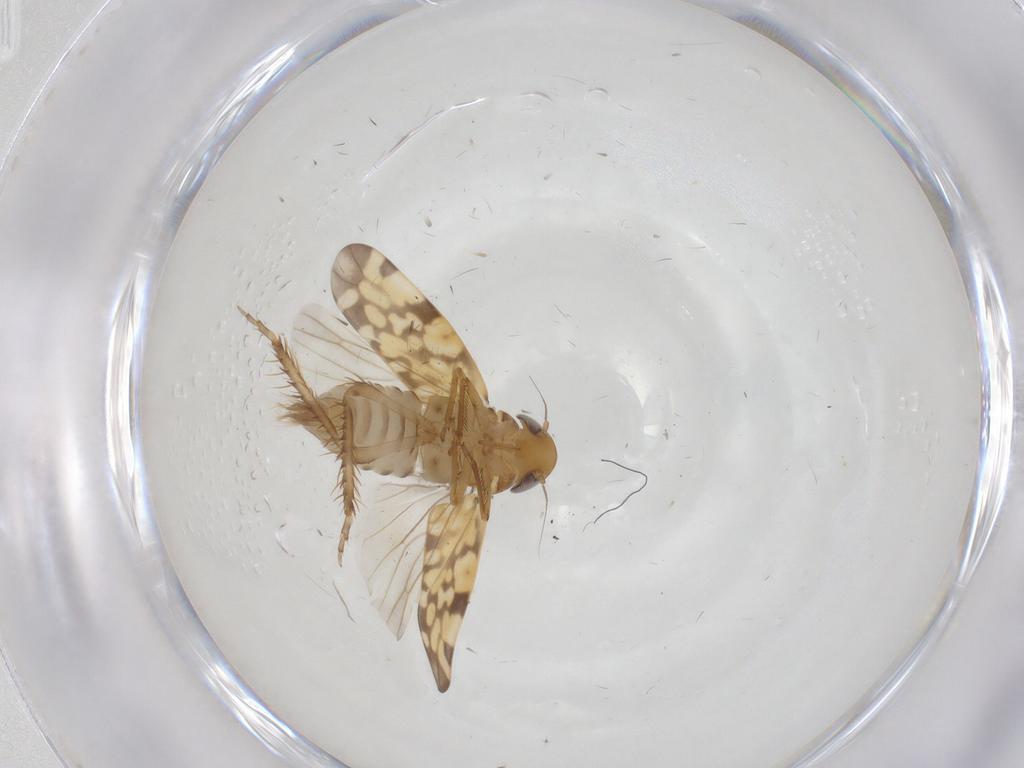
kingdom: Animalia
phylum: Arthropoda
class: Insecta
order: Hemiptera
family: Cicadellidae
